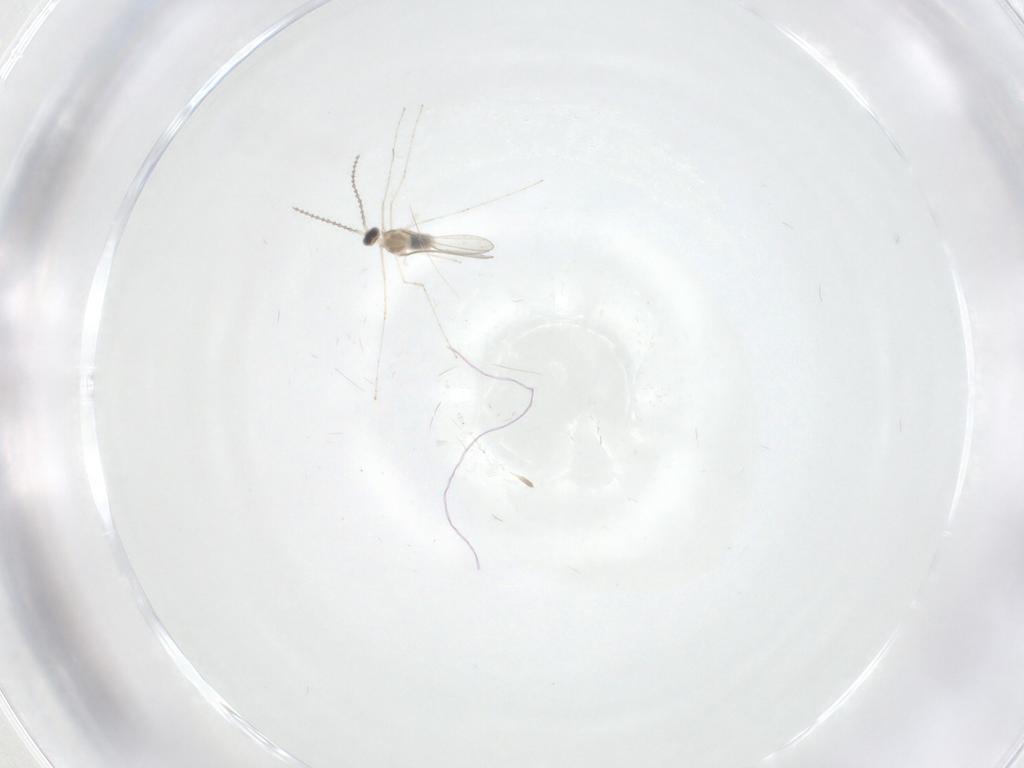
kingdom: Animalia
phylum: Arthropoda
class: Insecta
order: Diptera
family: Cecidomyiidae
